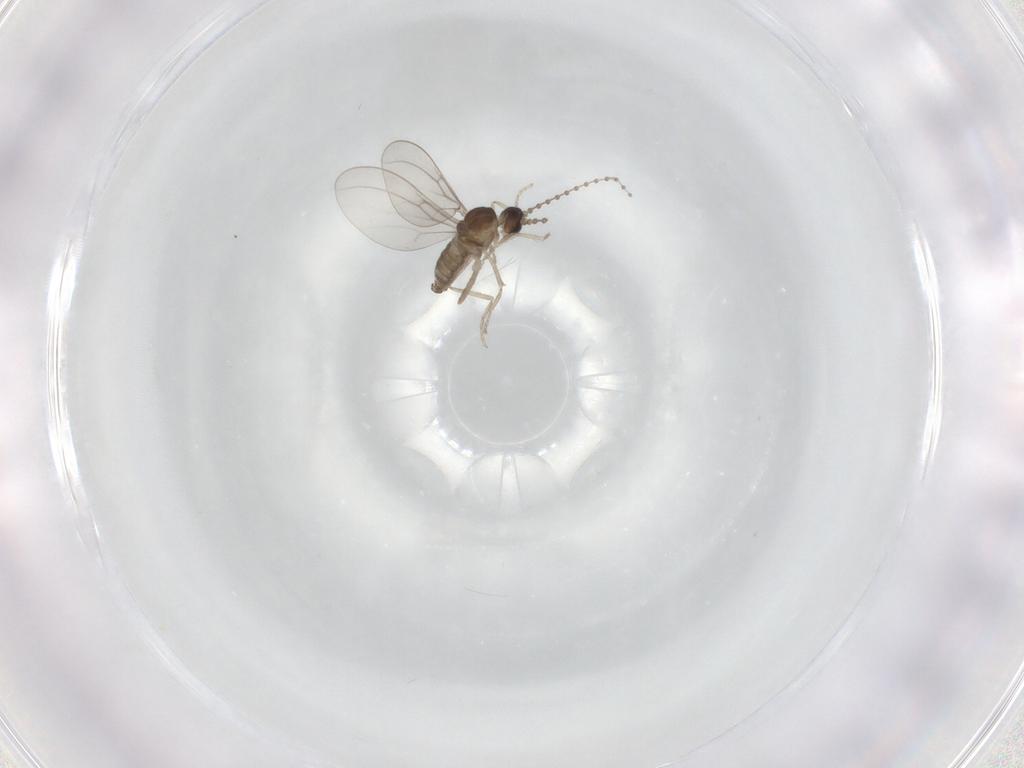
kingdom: Animalia
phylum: Arthropoda
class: Insecta
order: Diptera
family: Cecidomyiidae
